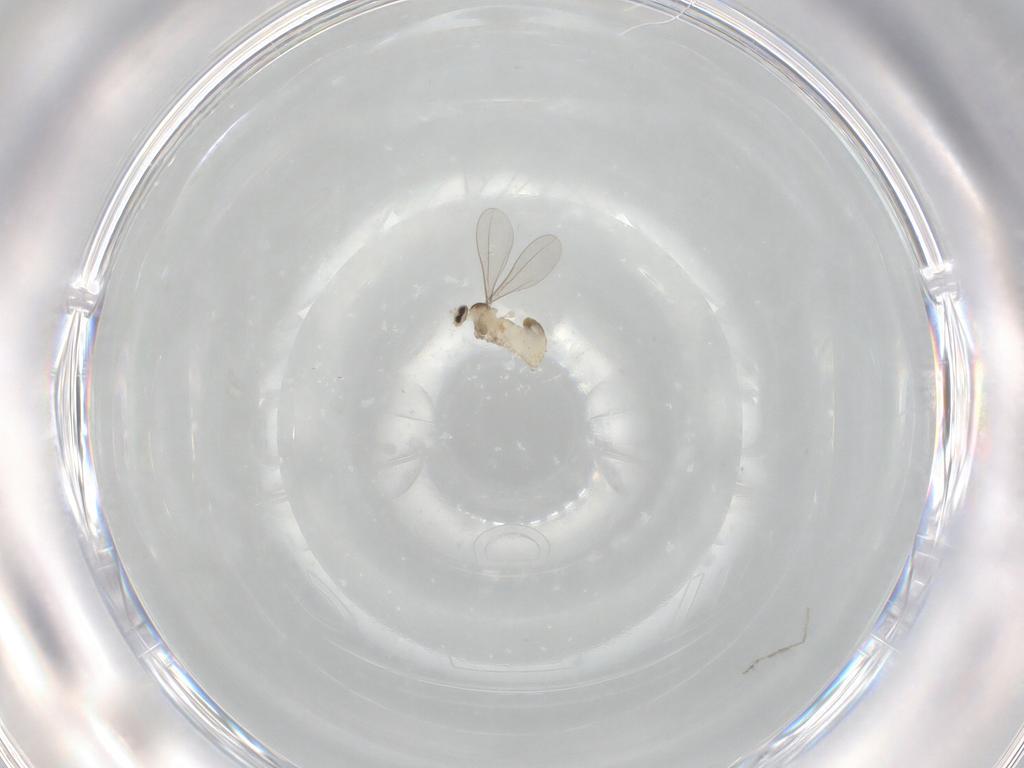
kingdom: Animalia
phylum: Arthropoda
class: Insecta
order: Diptera
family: Cecidomyiidae
